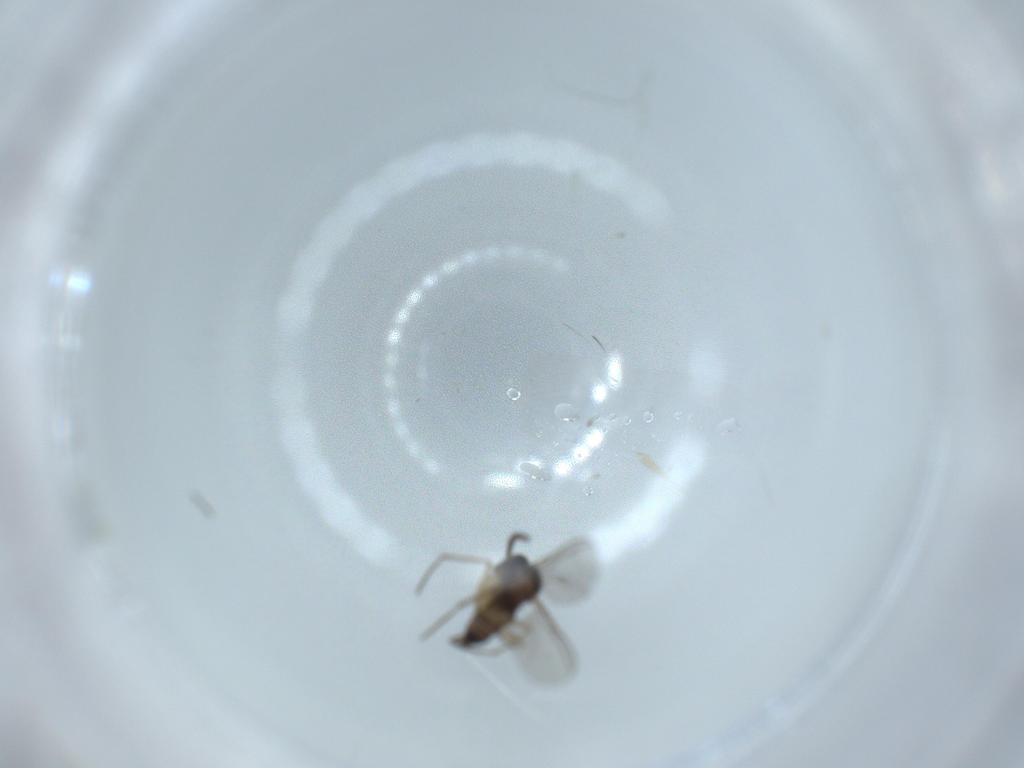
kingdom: Animalia
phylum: Arthropoda
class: Insecta
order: Diptera
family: Sciaridae
